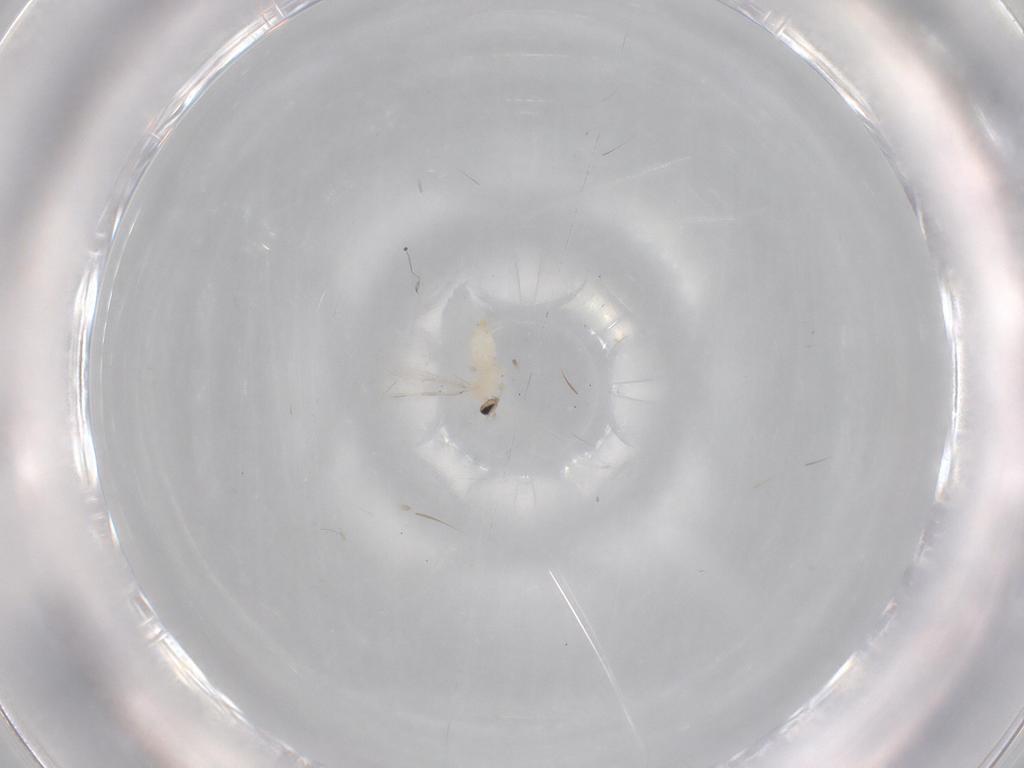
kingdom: Animalia
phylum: Arthropoda
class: Insecta
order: Diptera
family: Cecidomyiidae
